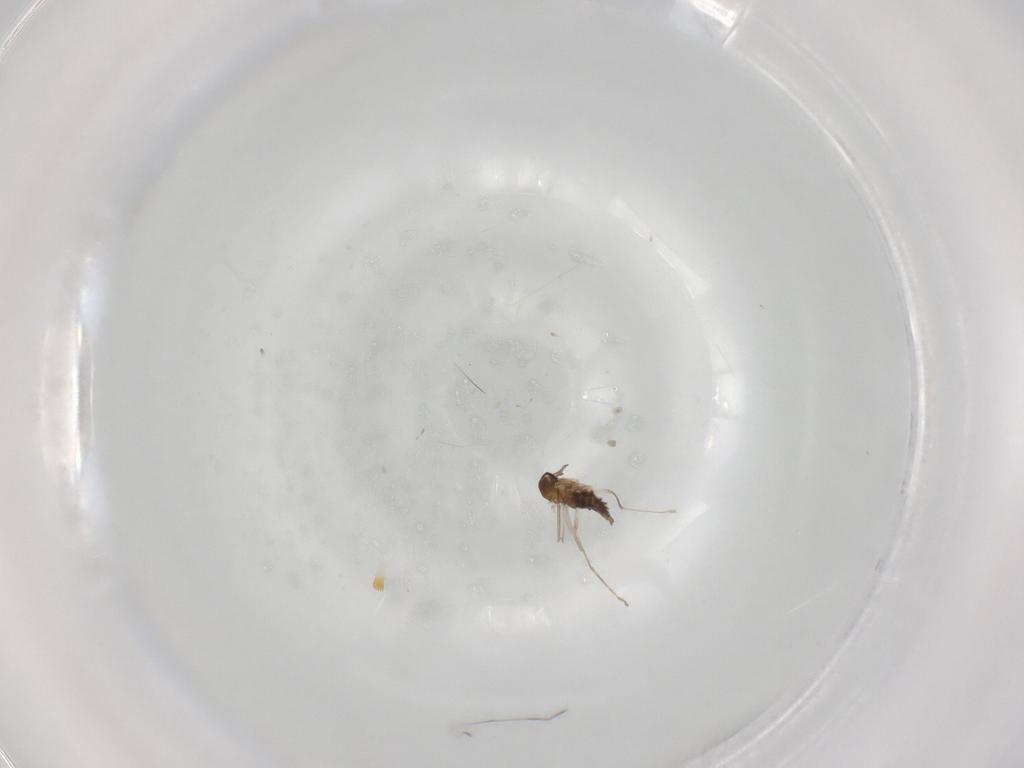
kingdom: Animalia
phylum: Arthropoda
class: Insecta
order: Diptera
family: Cecidomyiidae
